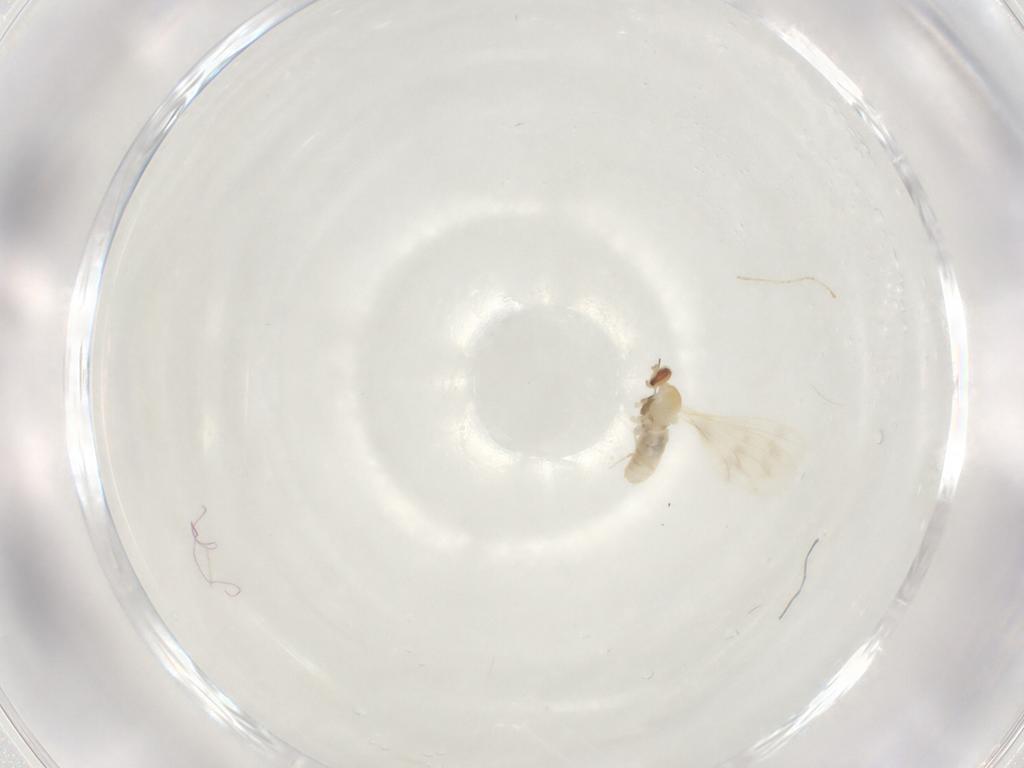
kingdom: Animalia
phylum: Arthropoda
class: Insecta
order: Diptera
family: Cecidomyiidae
